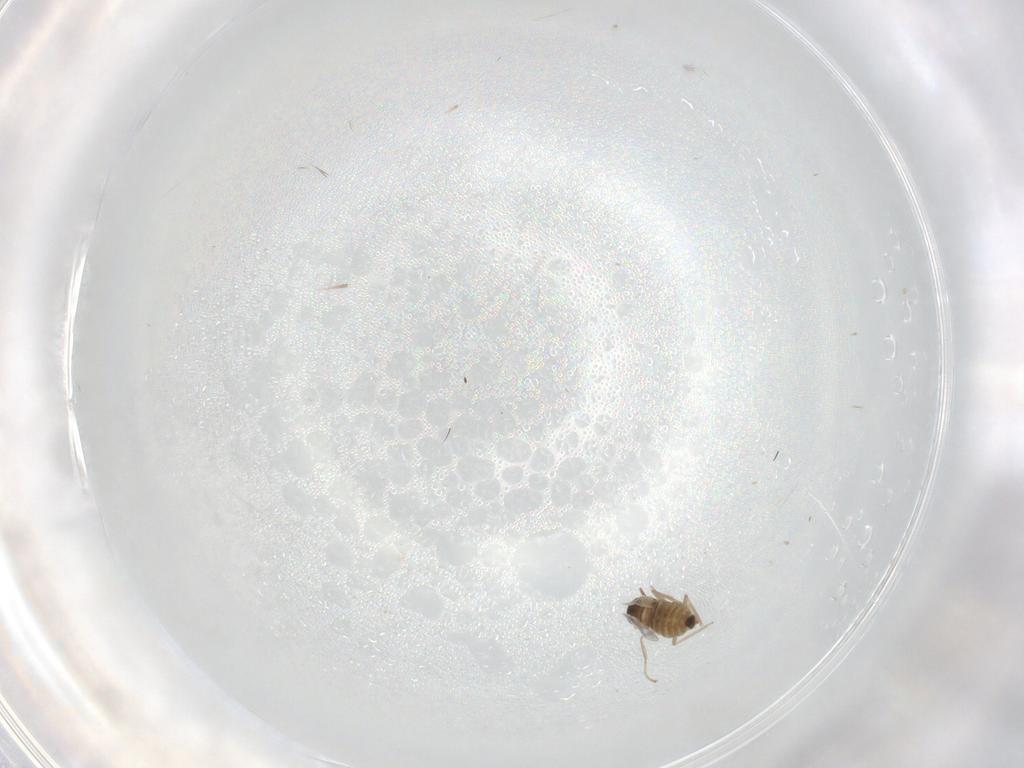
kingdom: Animalia
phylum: Arthropoda
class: Insecta
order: Diptera
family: Cecidomyiidae
